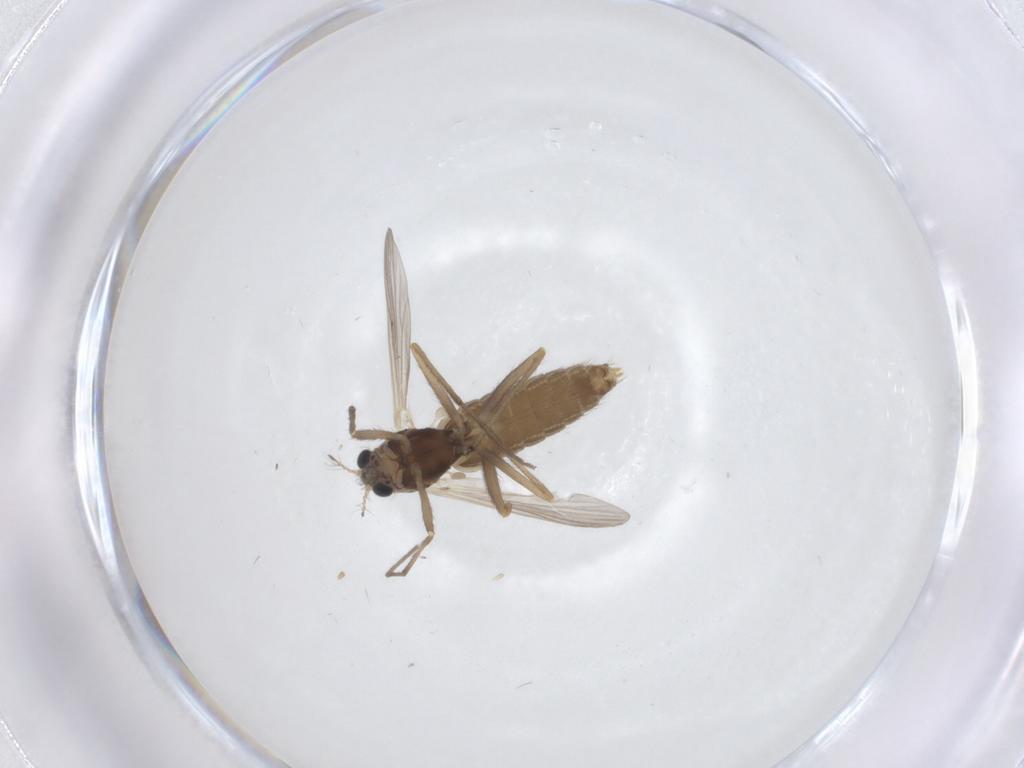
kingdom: Animalia
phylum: Arthropoda
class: Insecta
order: Diptera
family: Chironomidae
